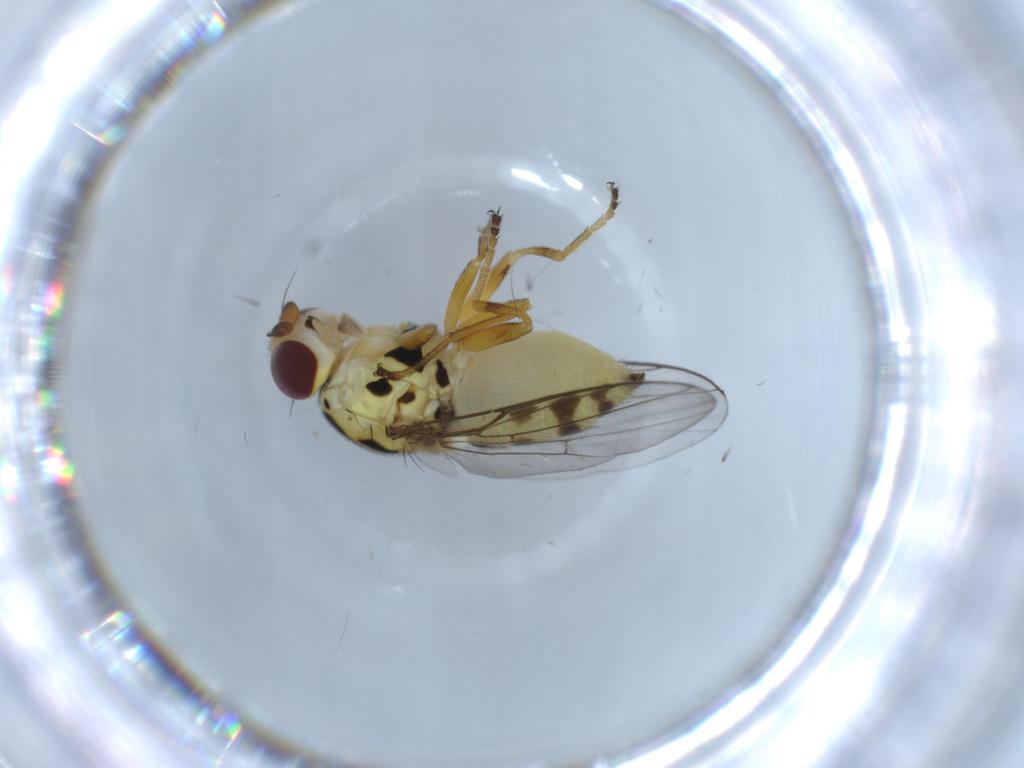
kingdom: Animalia
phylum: Arthropoda
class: Insecta
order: Diptera
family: Chloropidae
